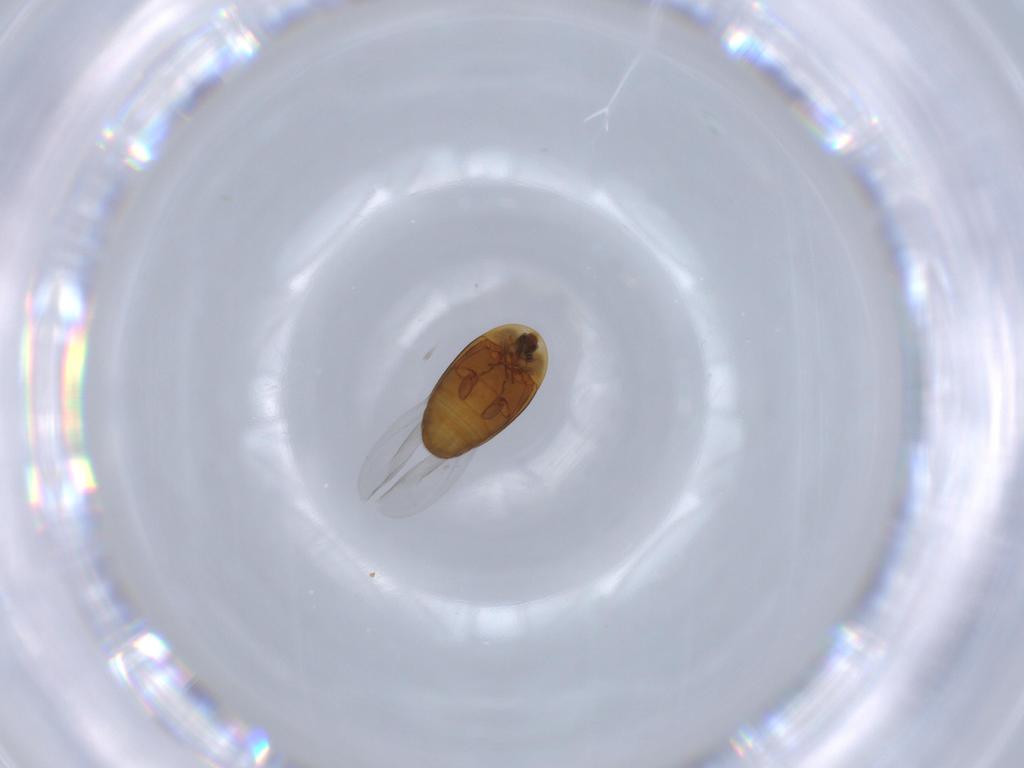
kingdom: Animalia
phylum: Arthropoda
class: Insecta
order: Coleoptera
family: Corylophidae
